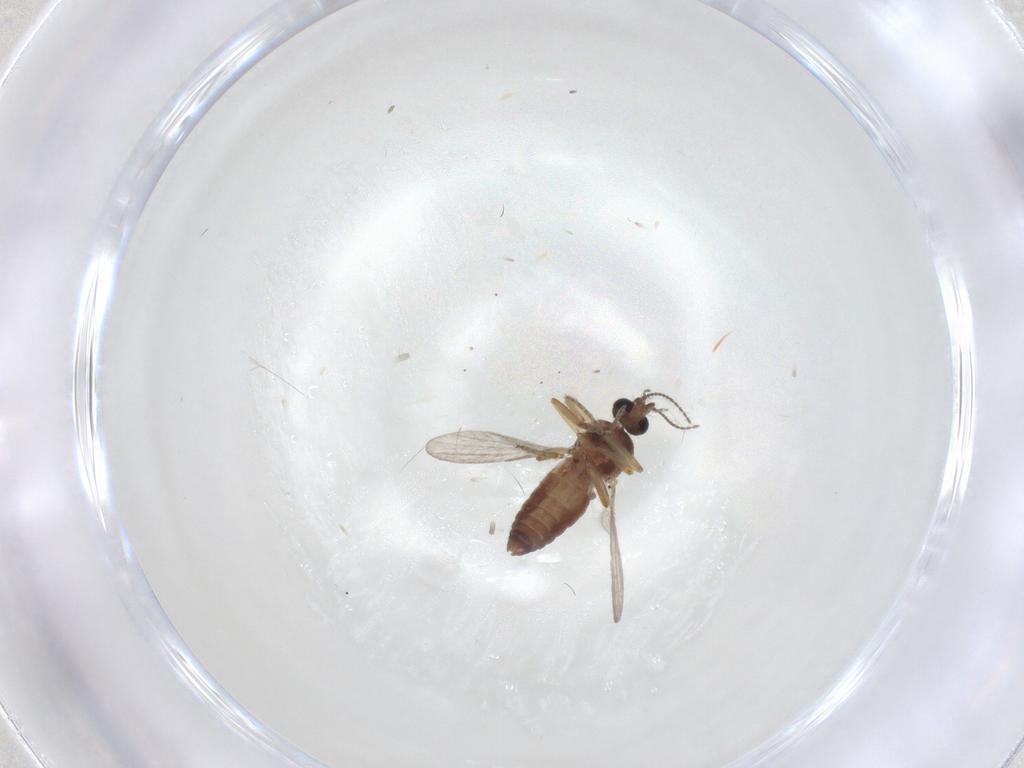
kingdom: Animalia
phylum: Arthropoda
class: Insecta
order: Diptera
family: Ceratopogonidae
